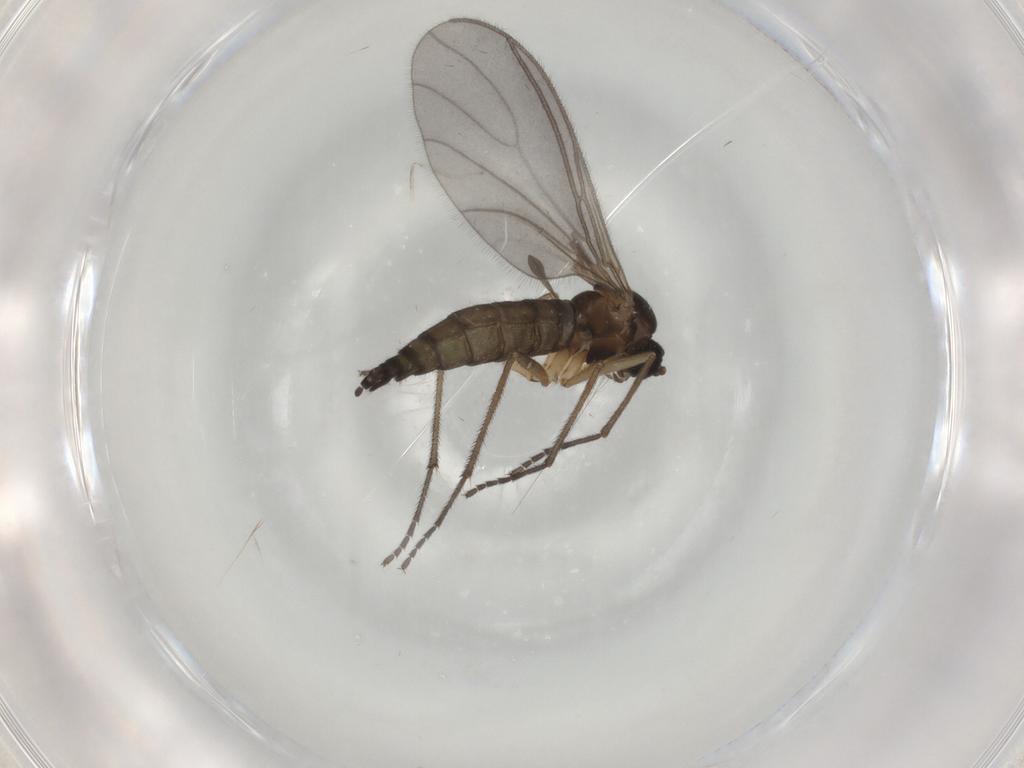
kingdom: Animalia
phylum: Arthropoda
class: Insecta
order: Diptera
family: Sciaridae
